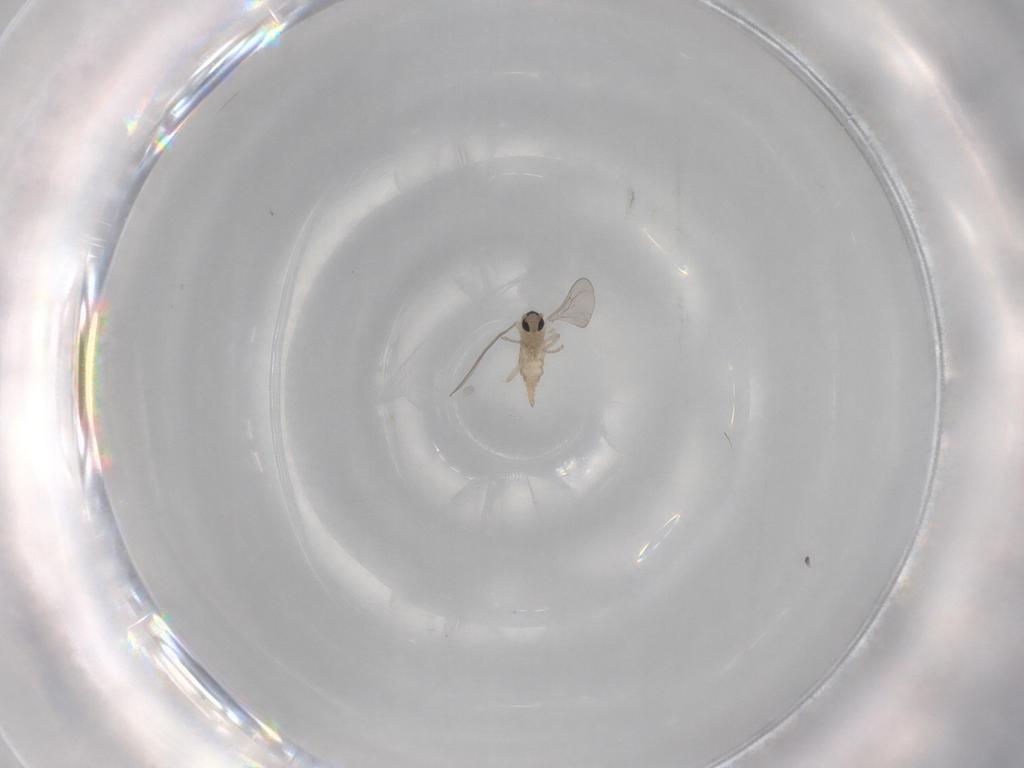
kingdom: Animalia
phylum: Arthropoda
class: Insecta
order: Diptera
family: Cecidomyiidae
